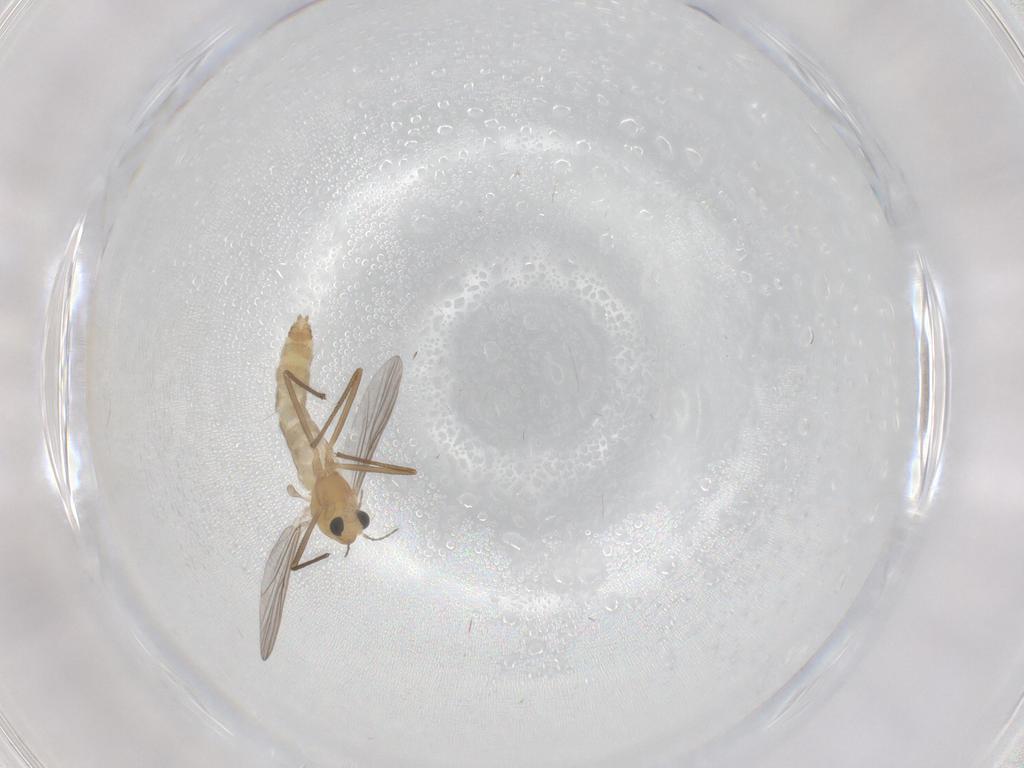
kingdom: Animalia
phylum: Arthropoda
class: Insecta
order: Diptera
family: Chironomidae
